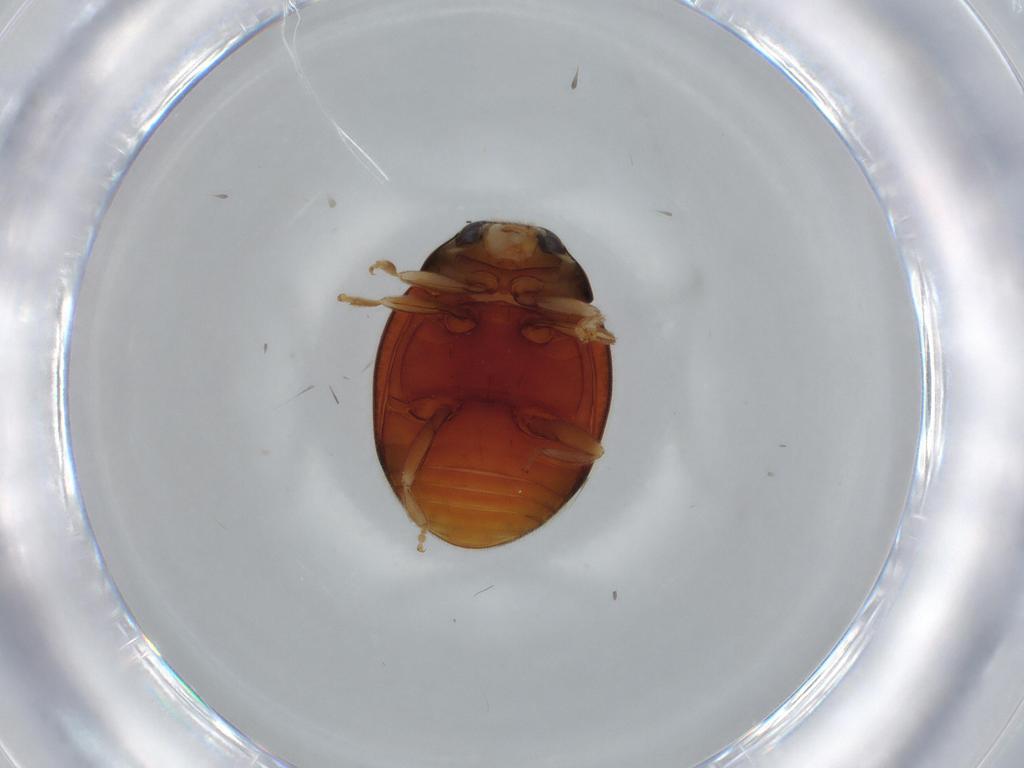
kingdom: Animalia
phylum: Arthropoda
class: Insecta
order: Coleoptera
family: Coccinellidae
